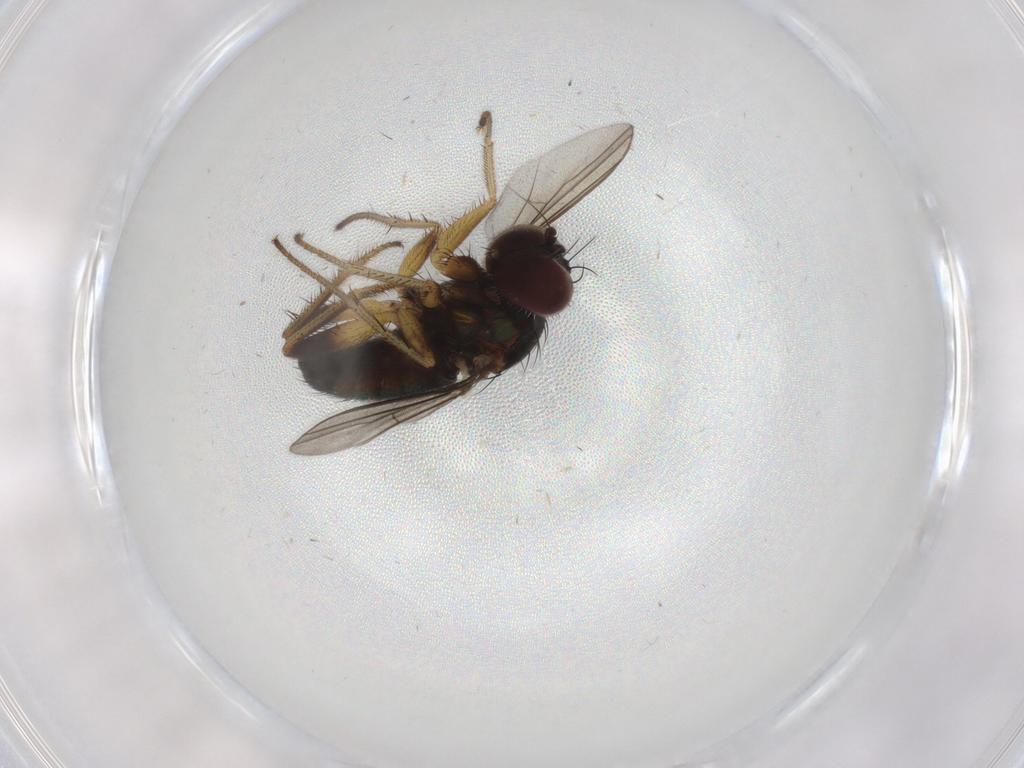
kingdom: Animalia
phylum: Arthropoda
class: Insecta
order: Diptera
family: Dolichopodidae
